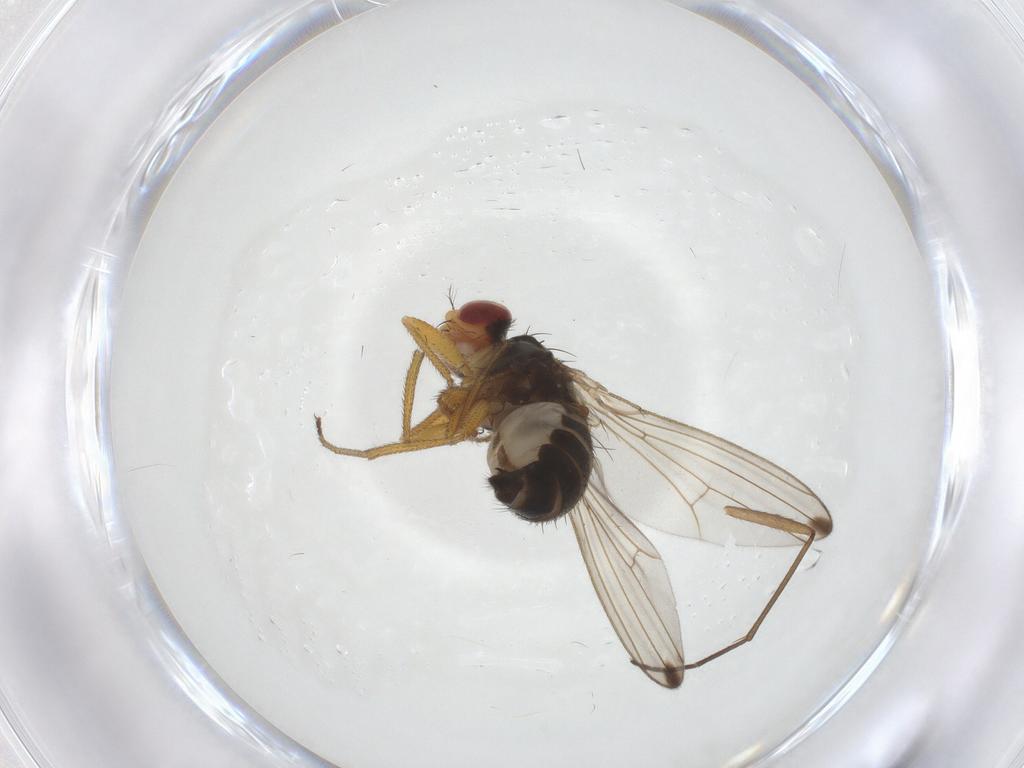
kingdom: Animalia
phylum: Arthropoda
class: Insecta
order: Diptera
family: Drosophilidae
